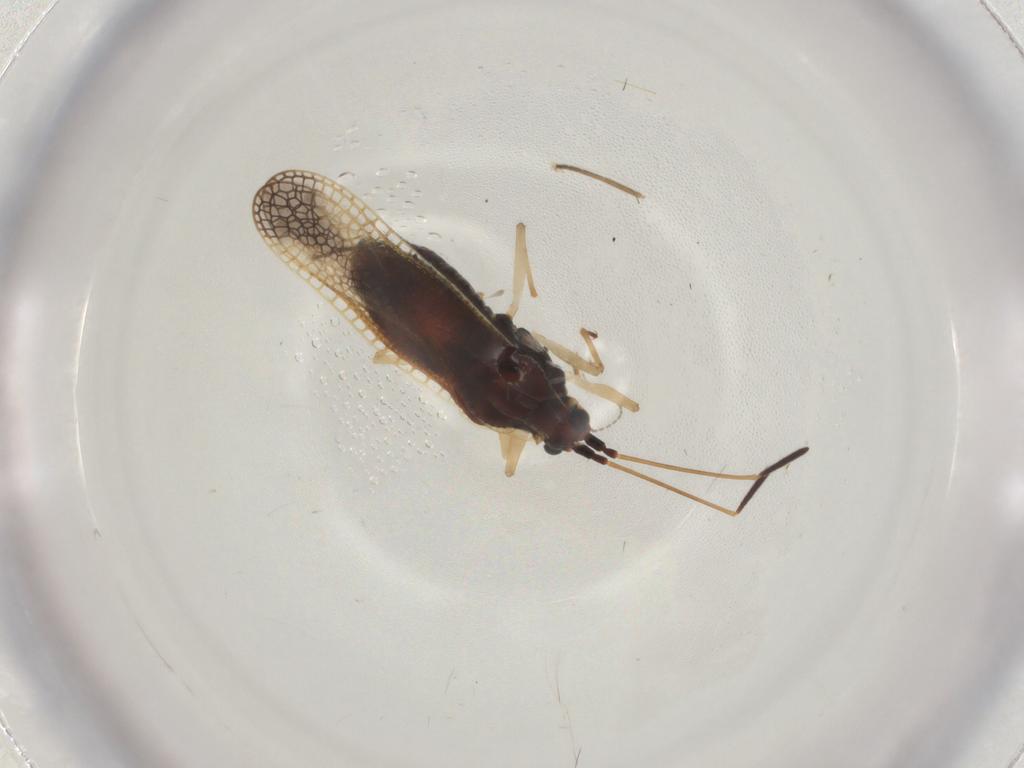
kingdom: Animalia
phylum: Arthropoda
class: Insecta
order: Hemiptera
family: Tingidae
